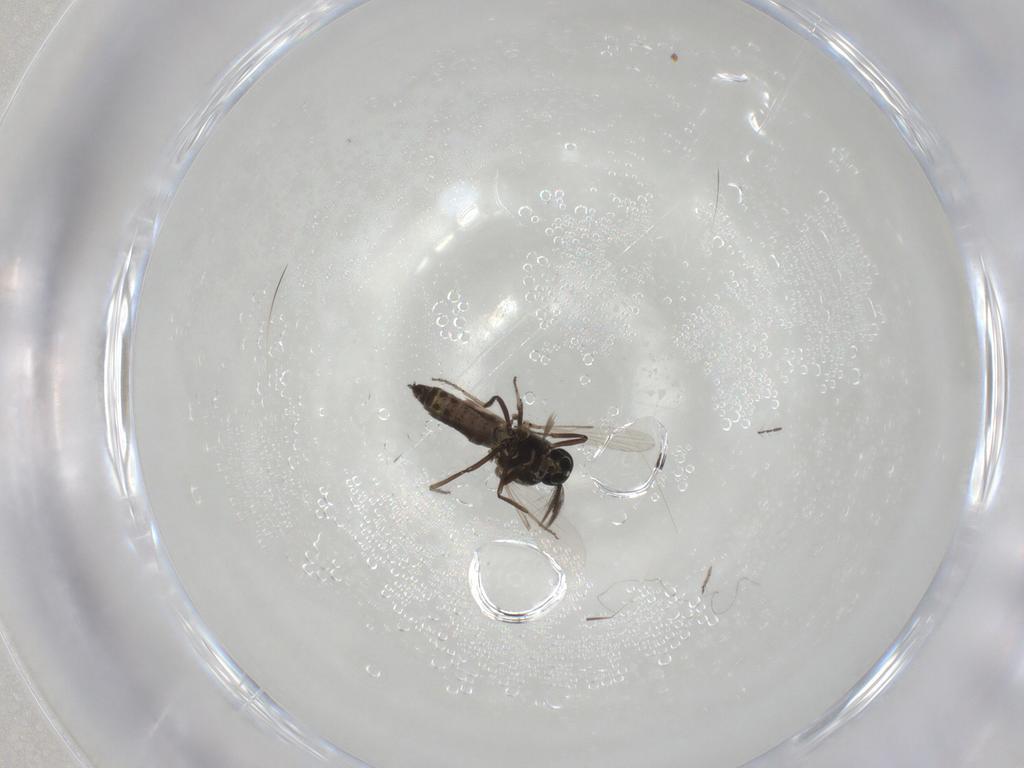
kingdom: Animalia
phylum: Arthropoda
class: Insecta
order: Diptera
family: Ceratopogonidae
